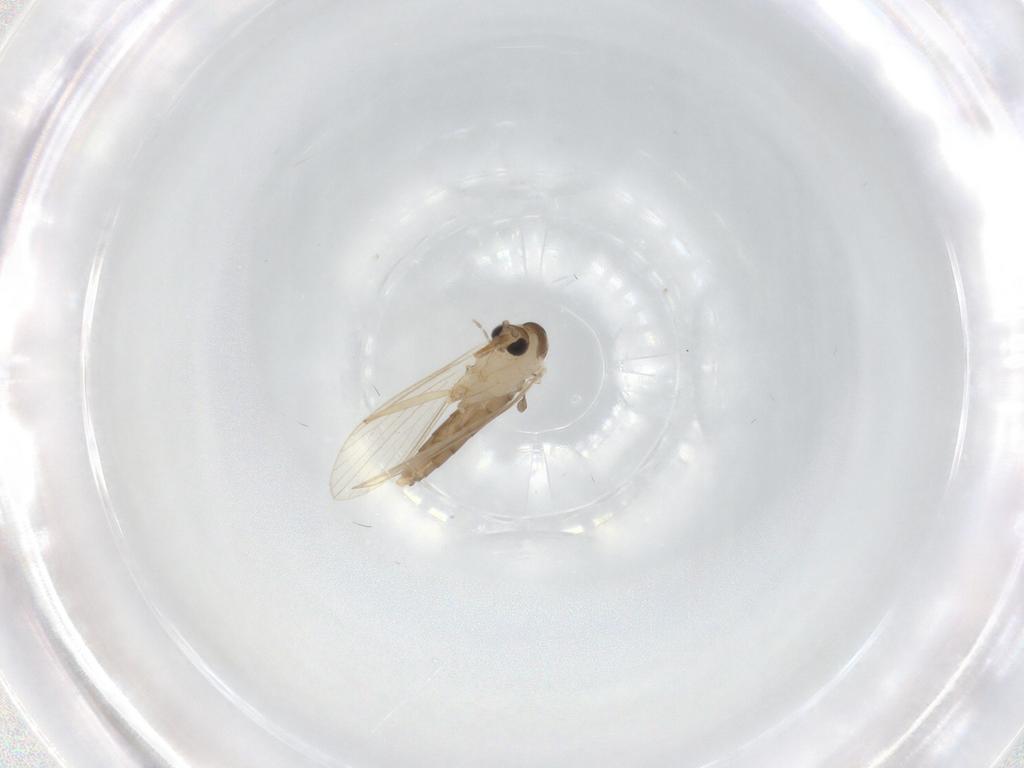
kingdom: Animalia
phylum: Arthropoda
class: Insecta
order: Diptera
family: Psychodidae
